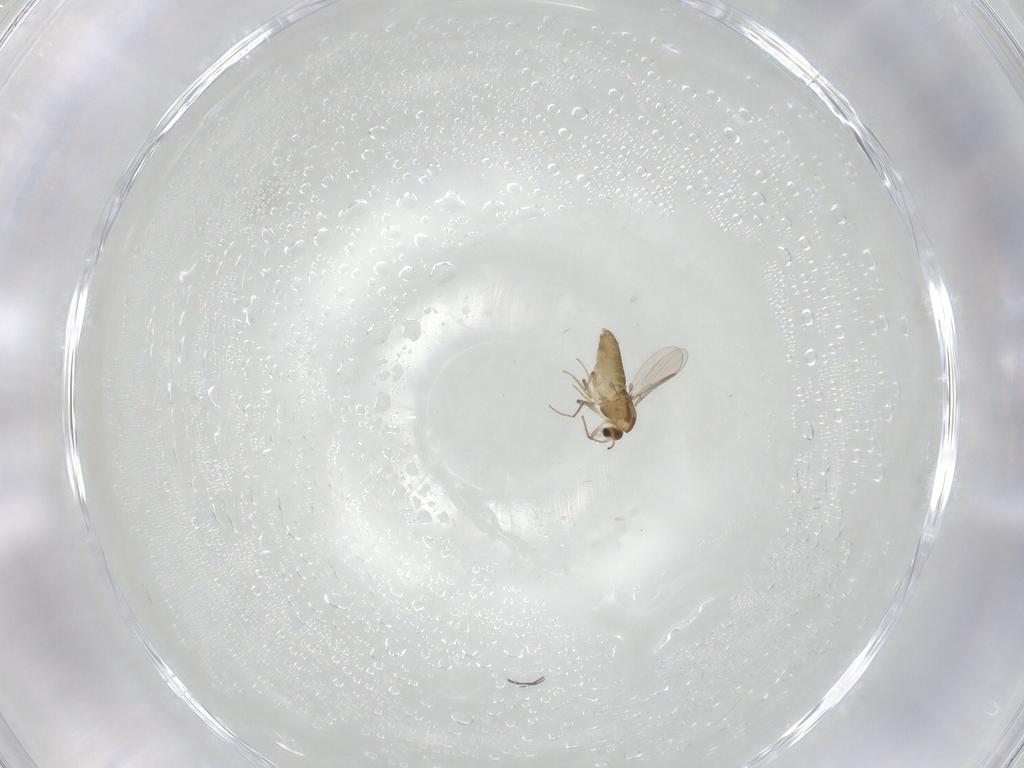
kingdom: Animalia
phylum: Arthropoda
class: Insecta
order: Diptera
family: Chironomidae
